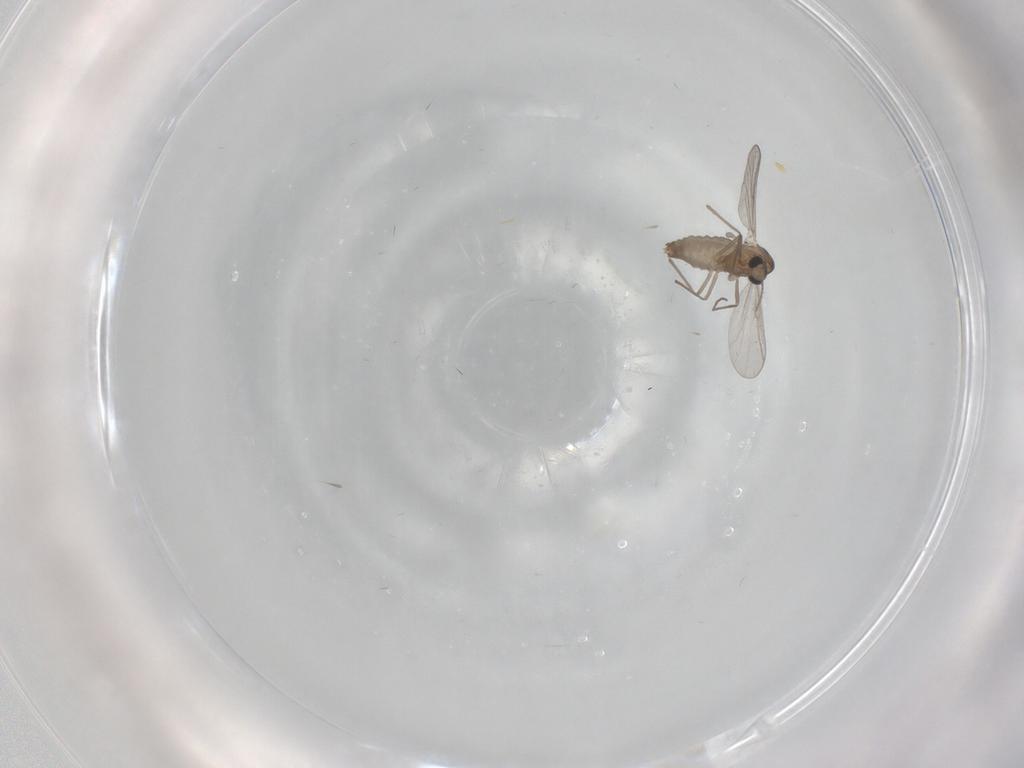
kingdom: Animalia
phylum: Arthropoda
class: Insecta
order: Diptera
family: Chironomidae
